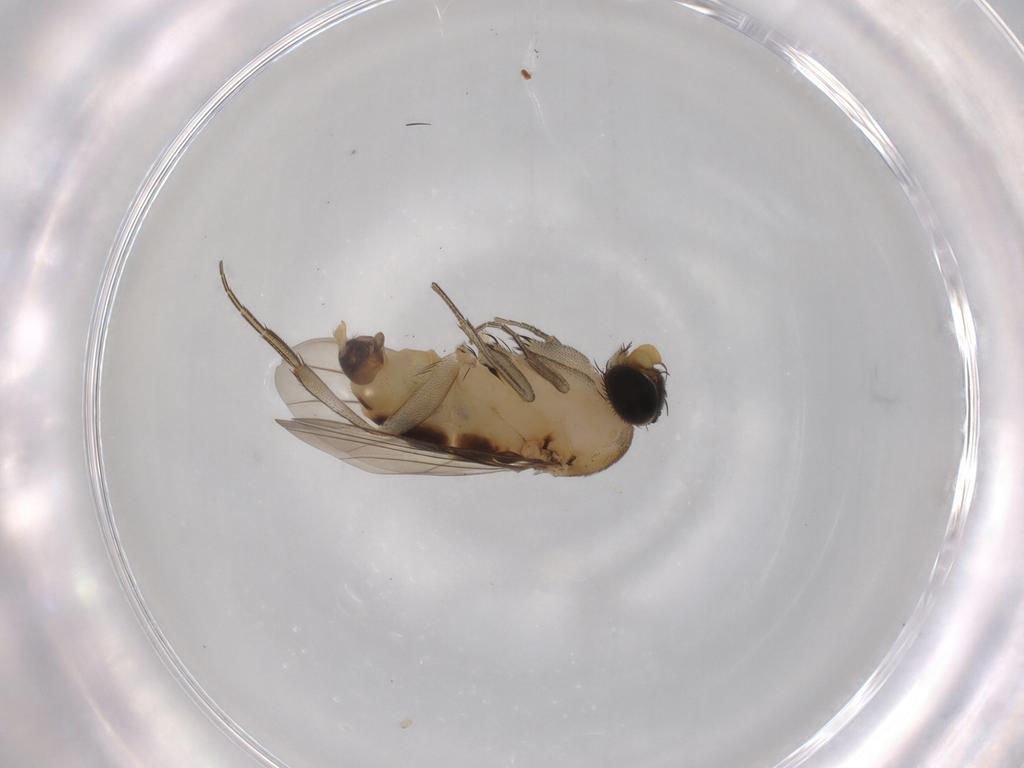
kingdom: Animalia
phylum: Arthropoda
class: Insecta
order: Diptera
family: Phoridae
